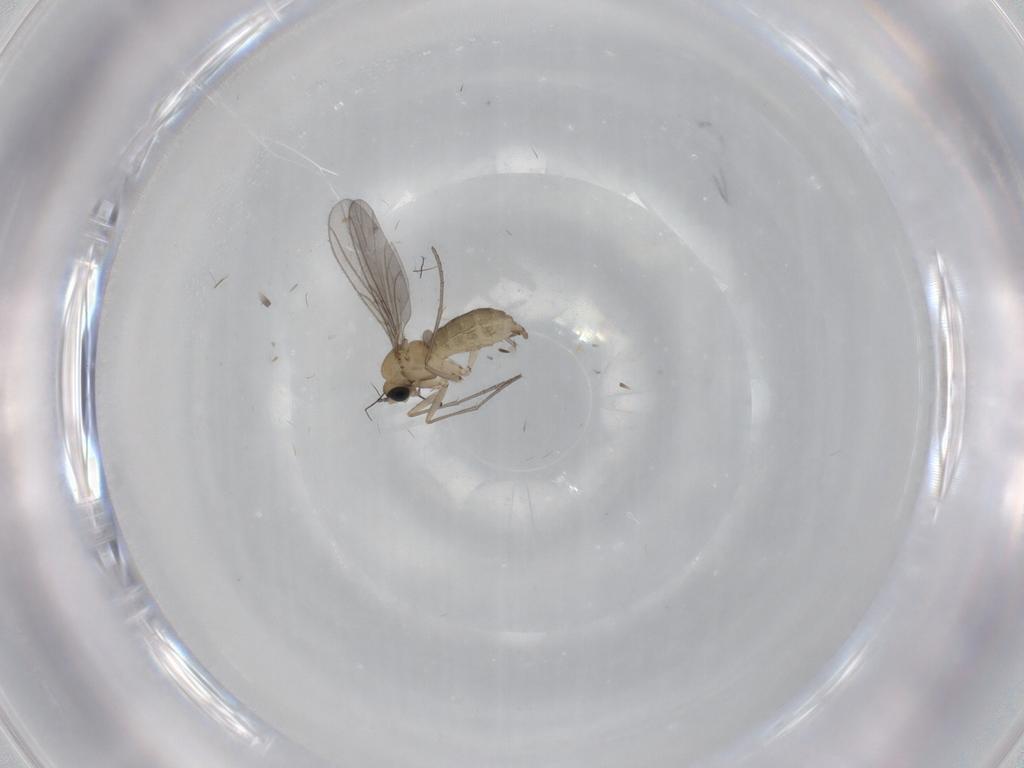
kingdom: Animalia
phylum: Arthropoda
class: Insecta
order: Diptera
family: Sciaridae
